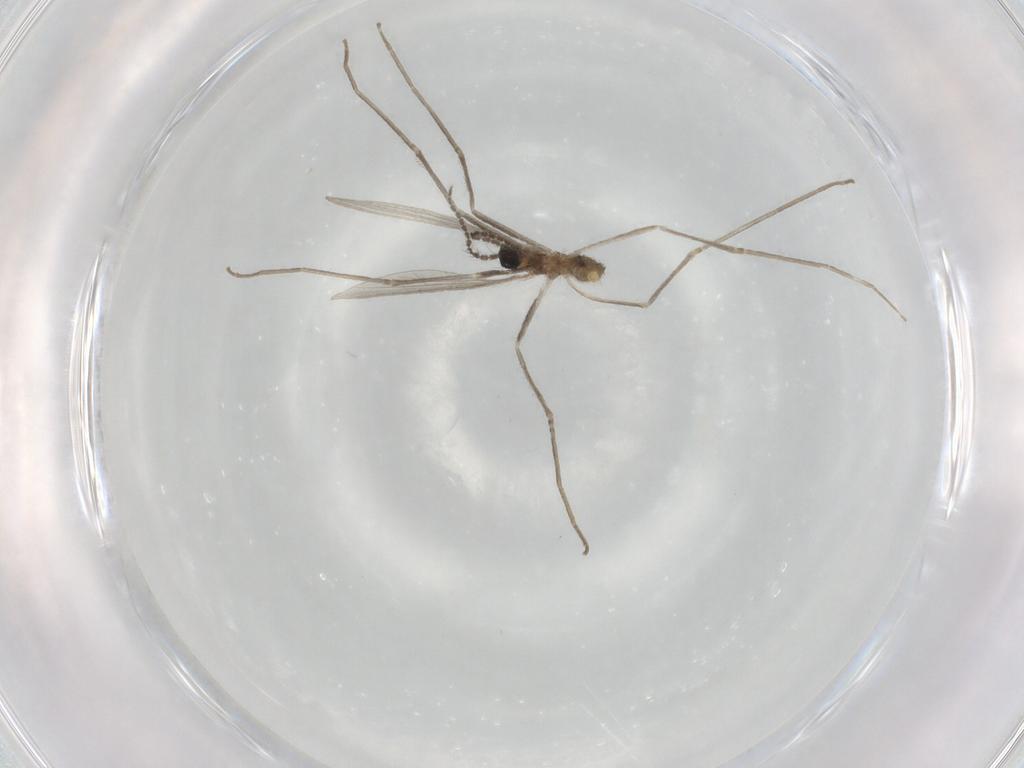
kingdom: Animalia
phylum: Arthropoda
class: Insecta
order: Diptera
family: Cecidomyiidae
